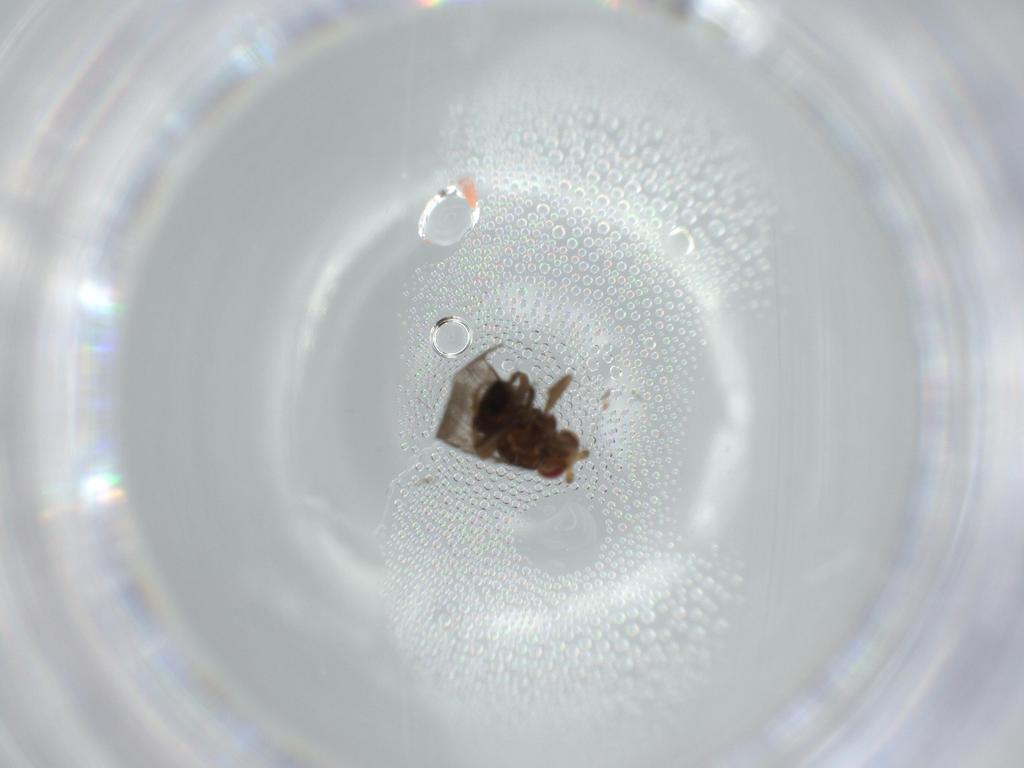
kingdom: Animalia
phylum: Arthropoda
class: Insecta
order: Diptera
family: Sphaeroceridae
